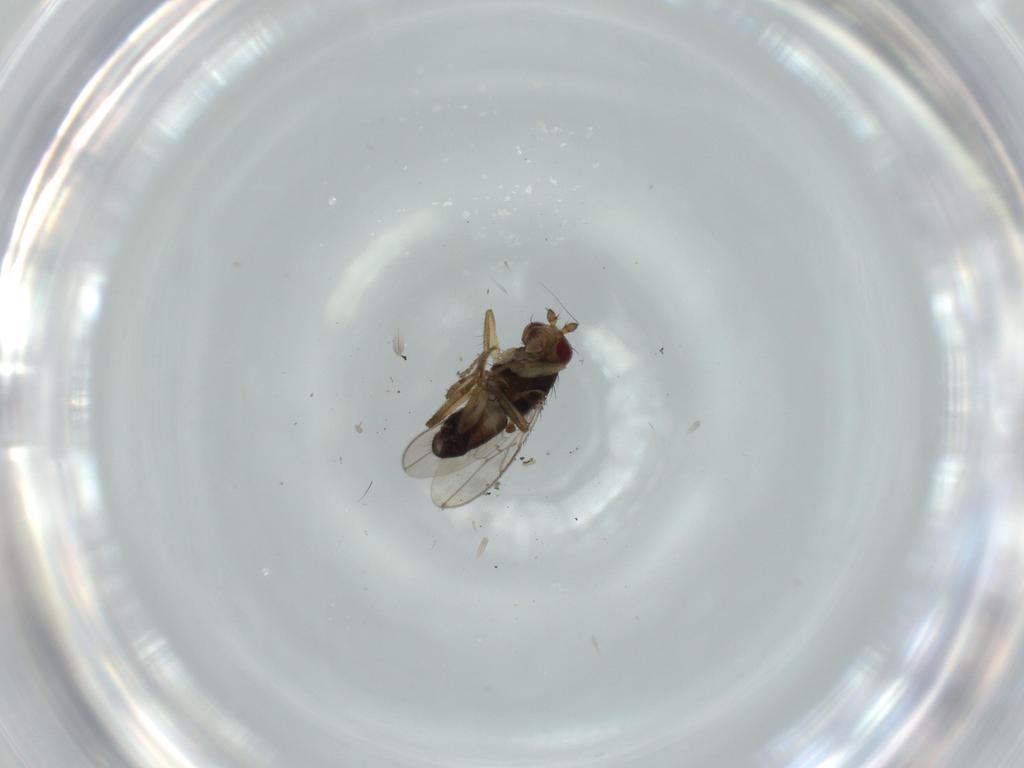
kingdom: Animalia
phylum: Arthropoda
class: Insecta
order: Diptera
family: Sphaeroceridae
